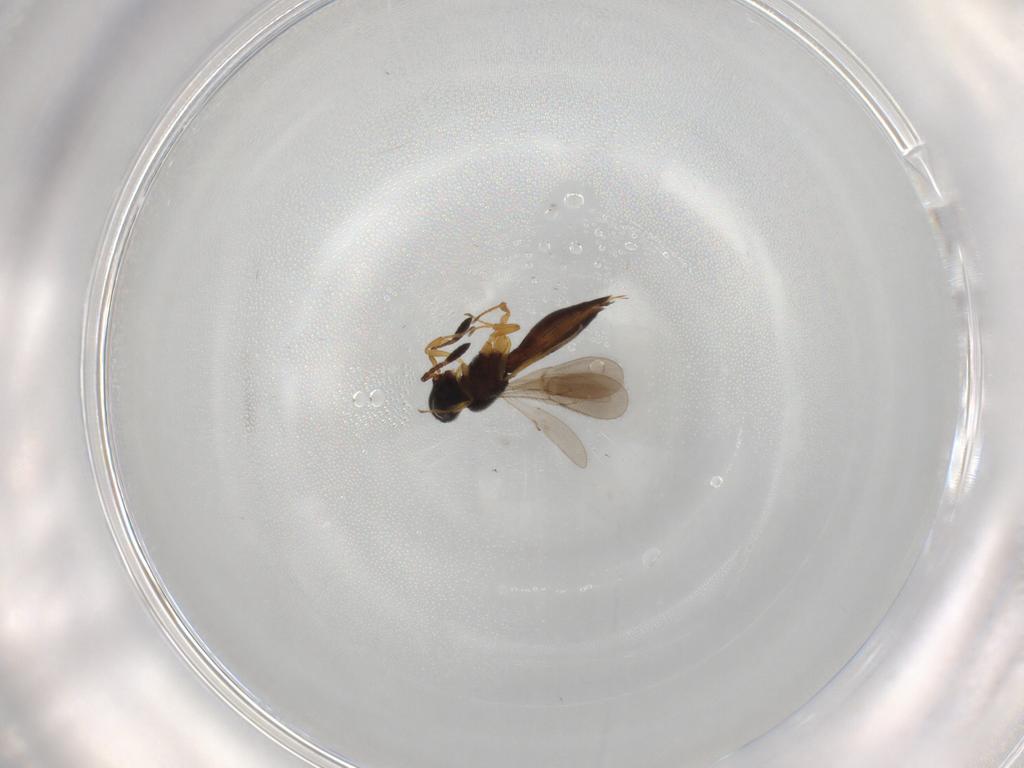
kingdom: Animalia
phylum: Arthropoda
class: Insecta
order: Hymenoptera
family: Scelionidae
